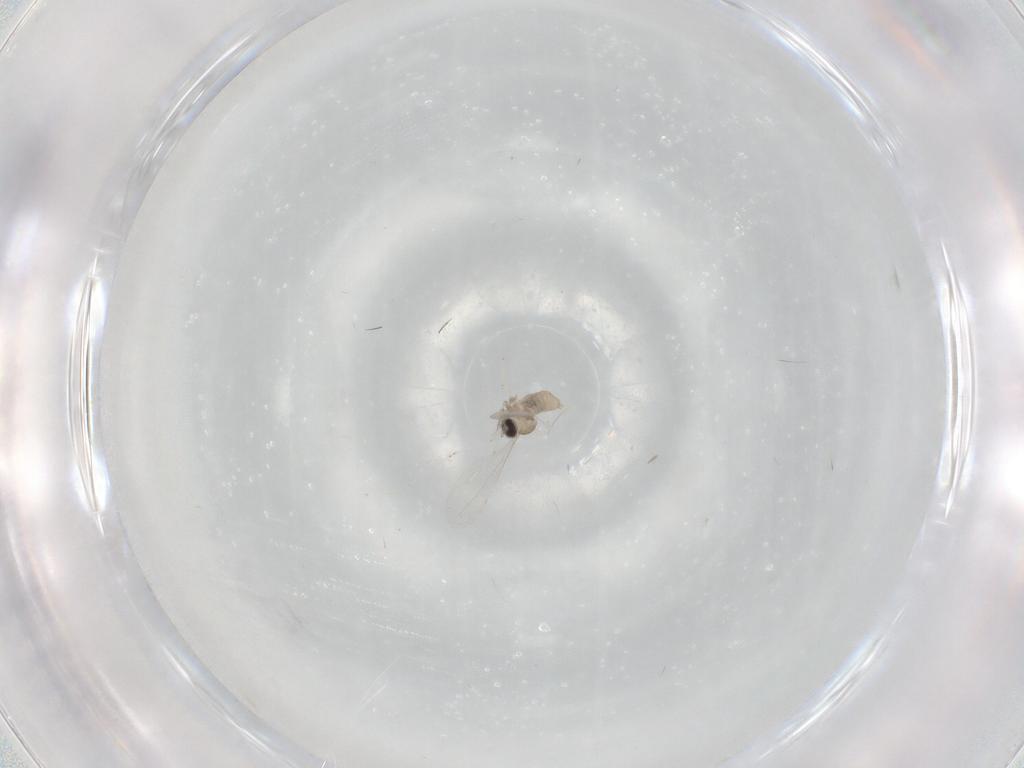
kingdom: Animalia
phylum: Arthropoda
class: Insecta
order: Diptera
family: Cecidomyiidae
